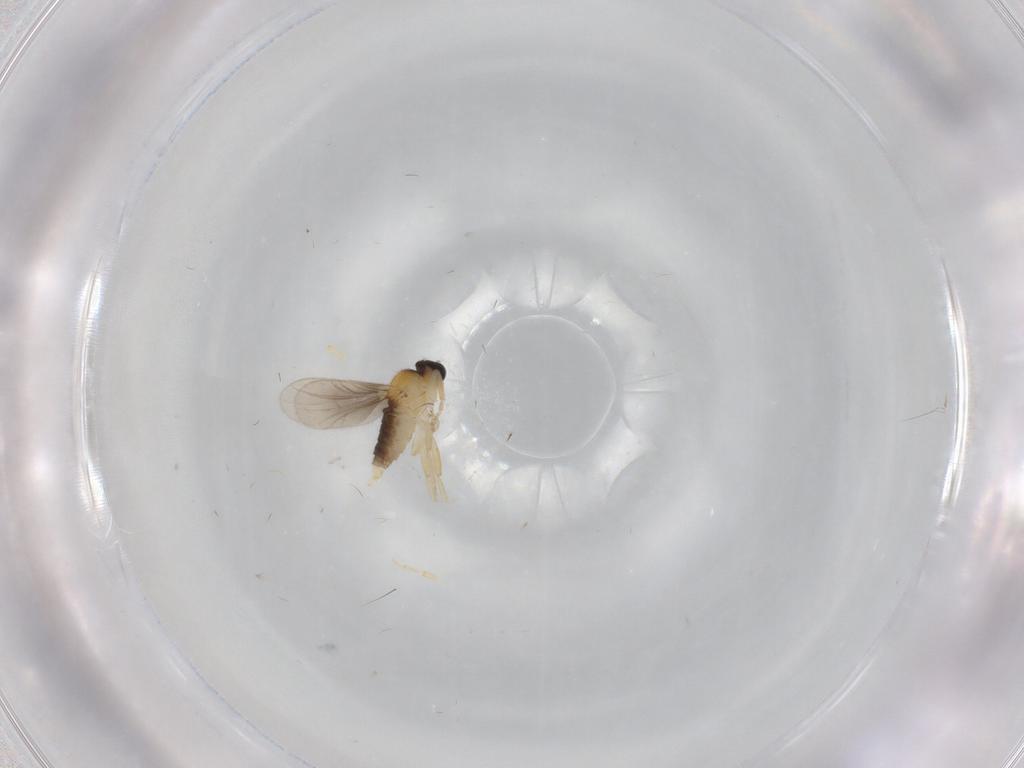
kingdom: Animalia
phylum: Arthropoda
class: Insecta
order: Diptera
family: Hybotidae
